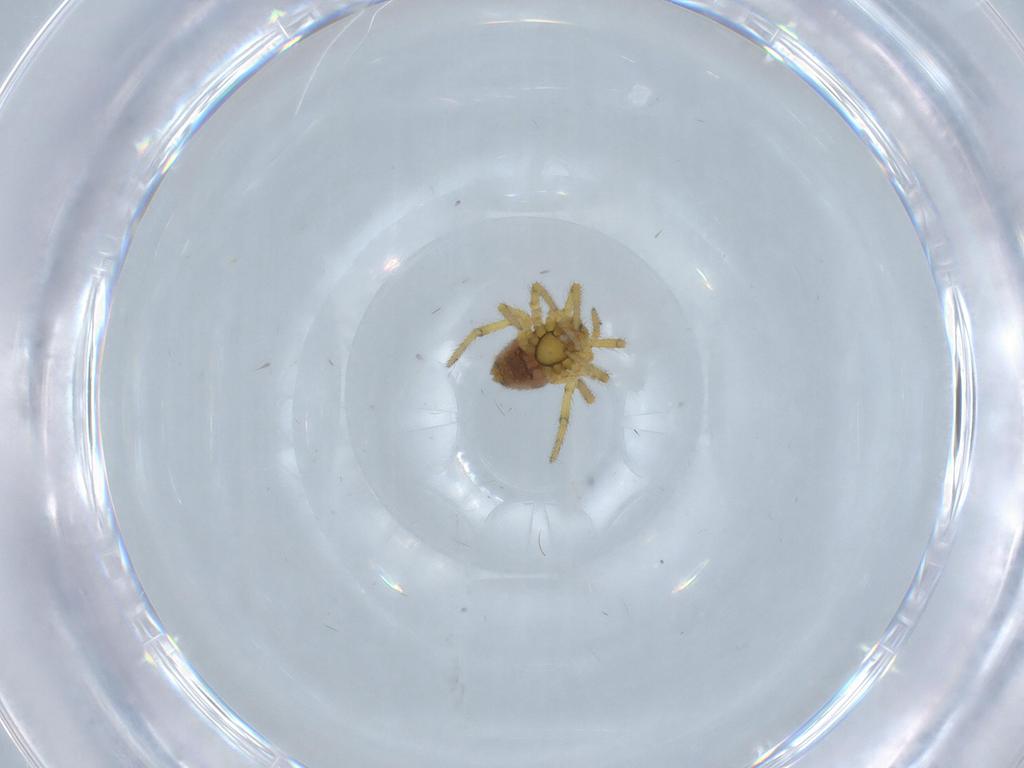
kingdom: Animalia
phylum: Arthropoda
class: Arachnida
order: Araneae
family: Theridiidae
